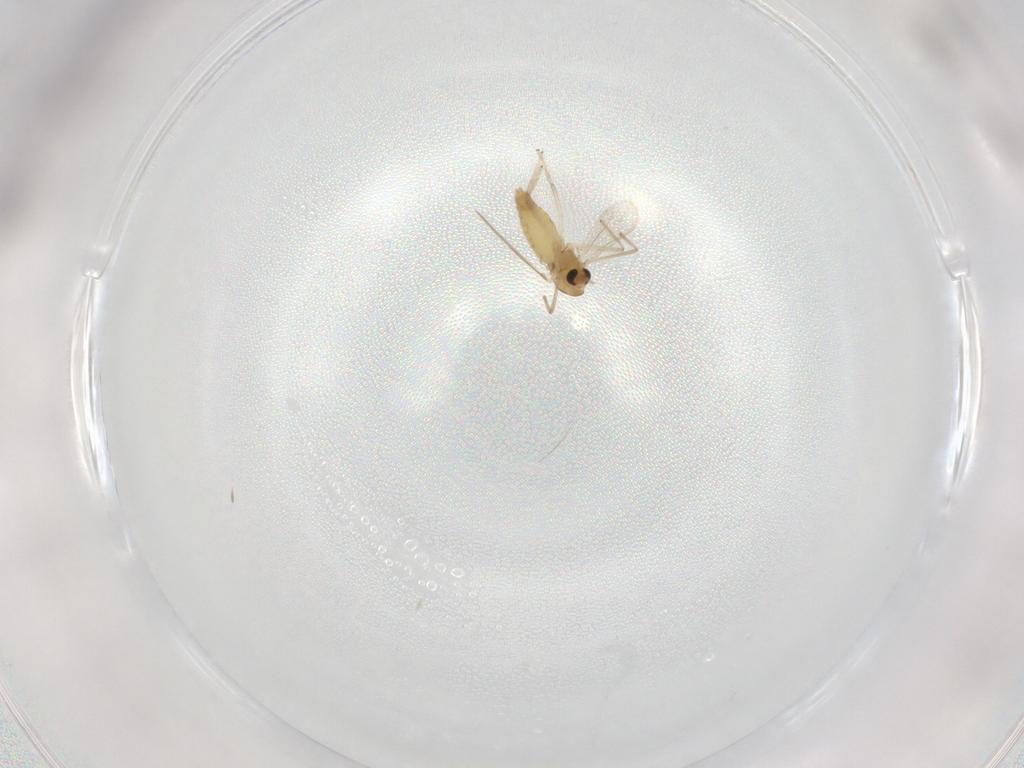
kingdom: Animalia
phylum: Arthropoda
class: Insecta
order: Diptera
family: Chironomidae
